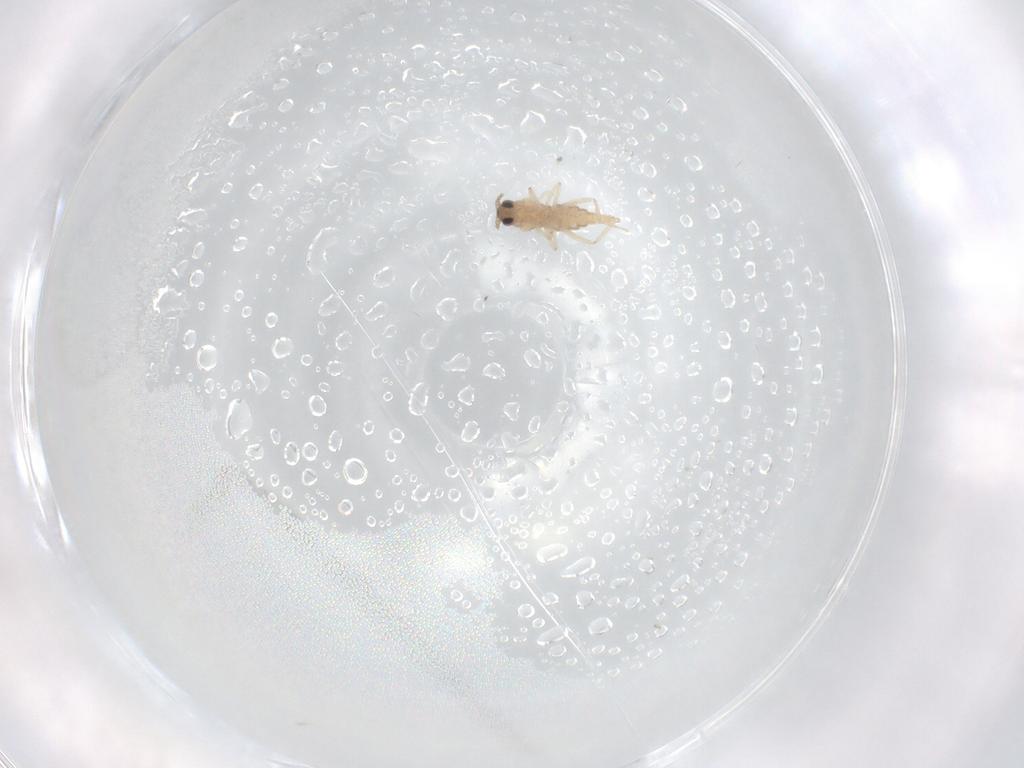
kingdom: Animalia
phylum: Arthropoda
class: Insecta
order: Diptera
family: Cecidomyiidae
